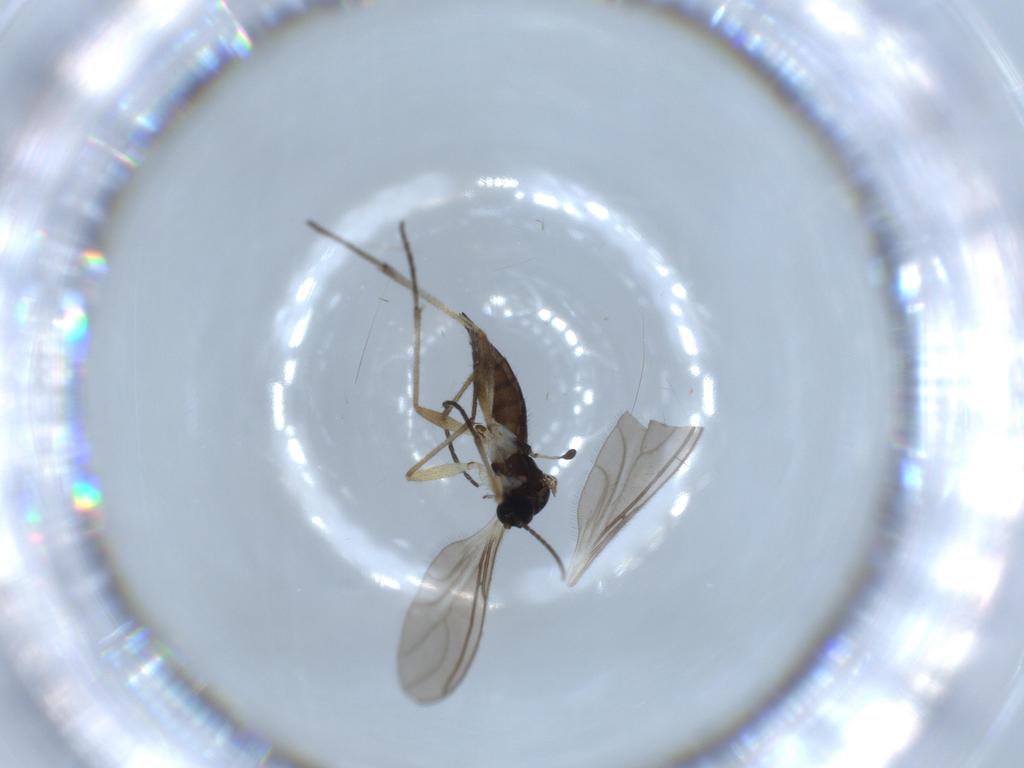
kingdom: Animalia
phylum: Arthropoda
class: Insecta
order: Diptera
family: Sciaridae
